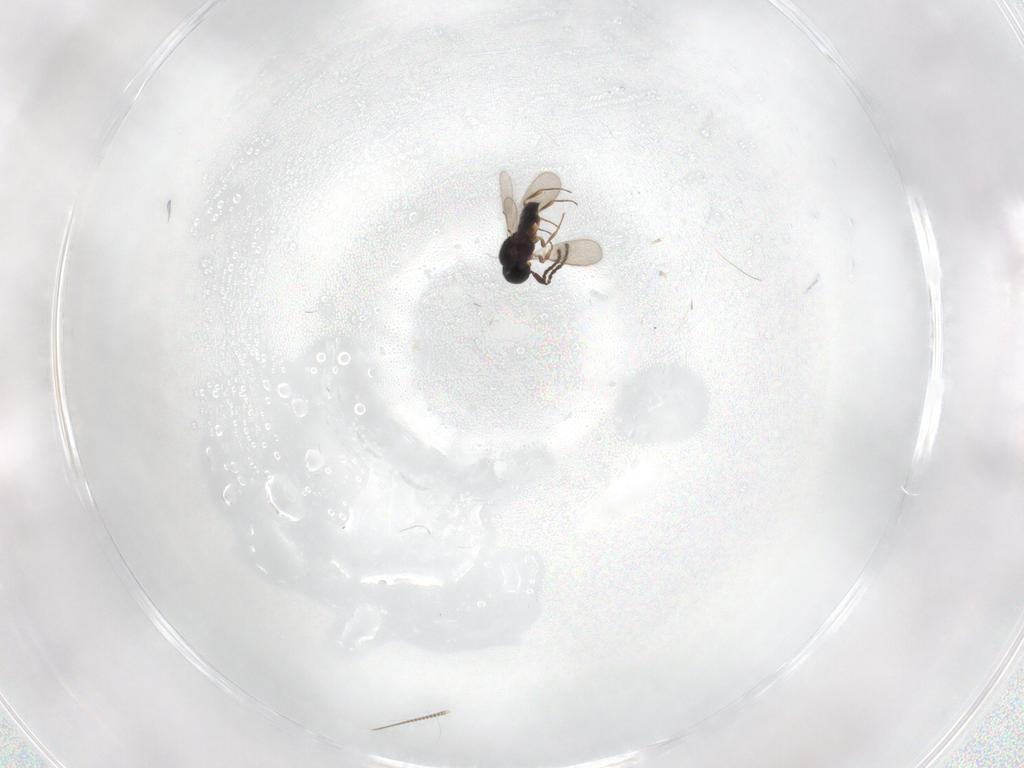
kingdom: Animalia
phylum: Arthropoda
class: Insecta
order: Hymenoptera
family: Scelionidae
